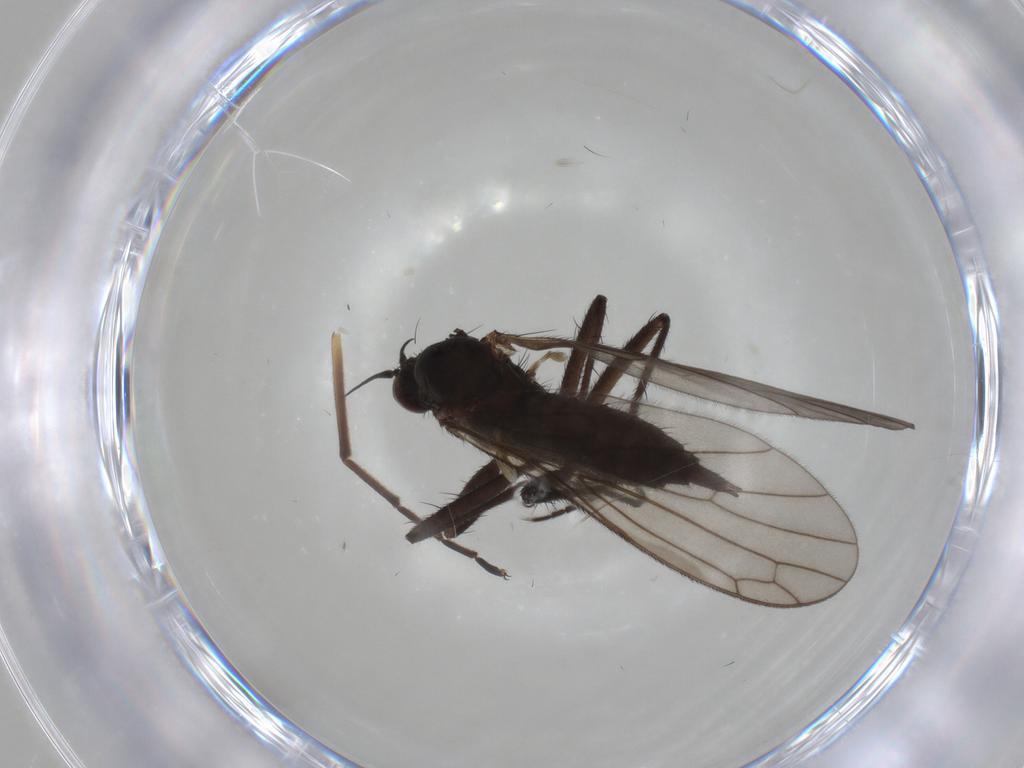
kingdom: Animalia
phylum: Arthropoda
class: Insecta
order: Diptera
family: Empididae
